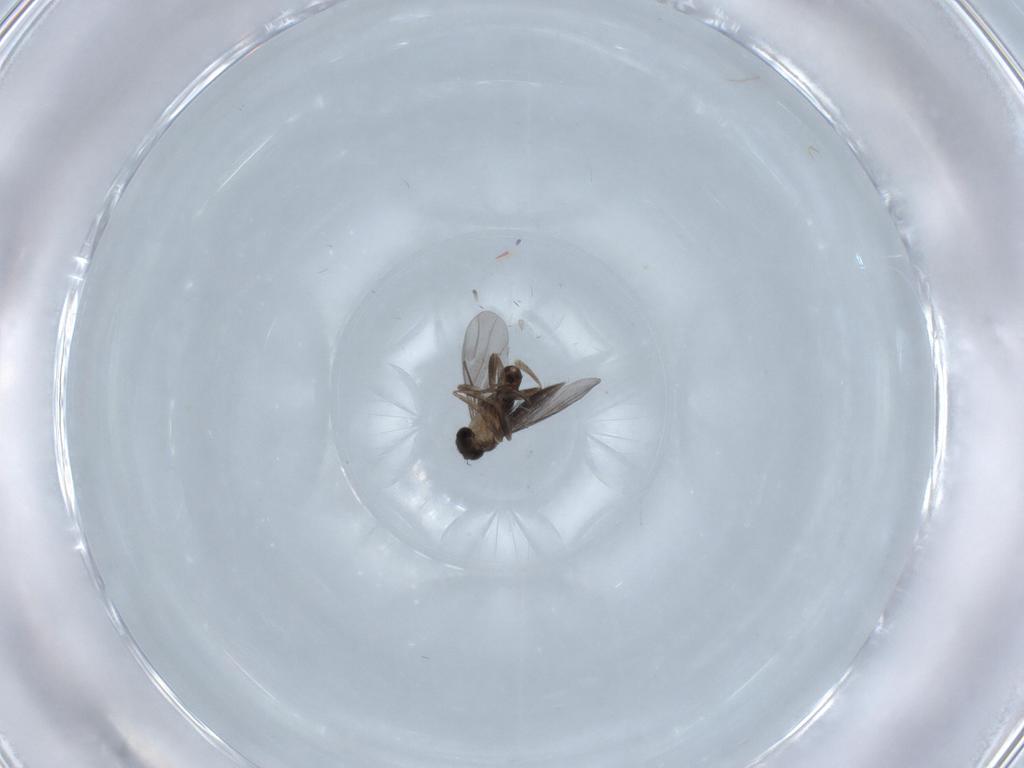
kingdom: Animalia
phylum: Arthropoda
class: Insecta
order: Diptera
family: Ceratopogonidae
